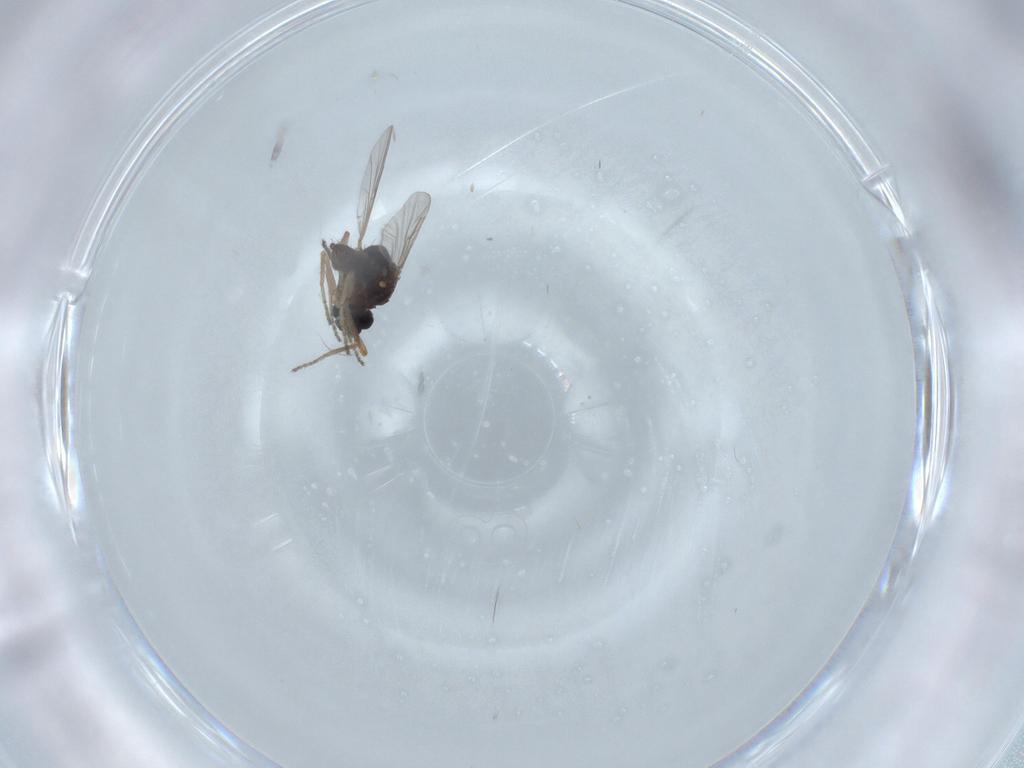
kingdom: Animalia
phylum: Arthropoda
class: Insecta
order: Diptera
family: Ceratopogonidae
